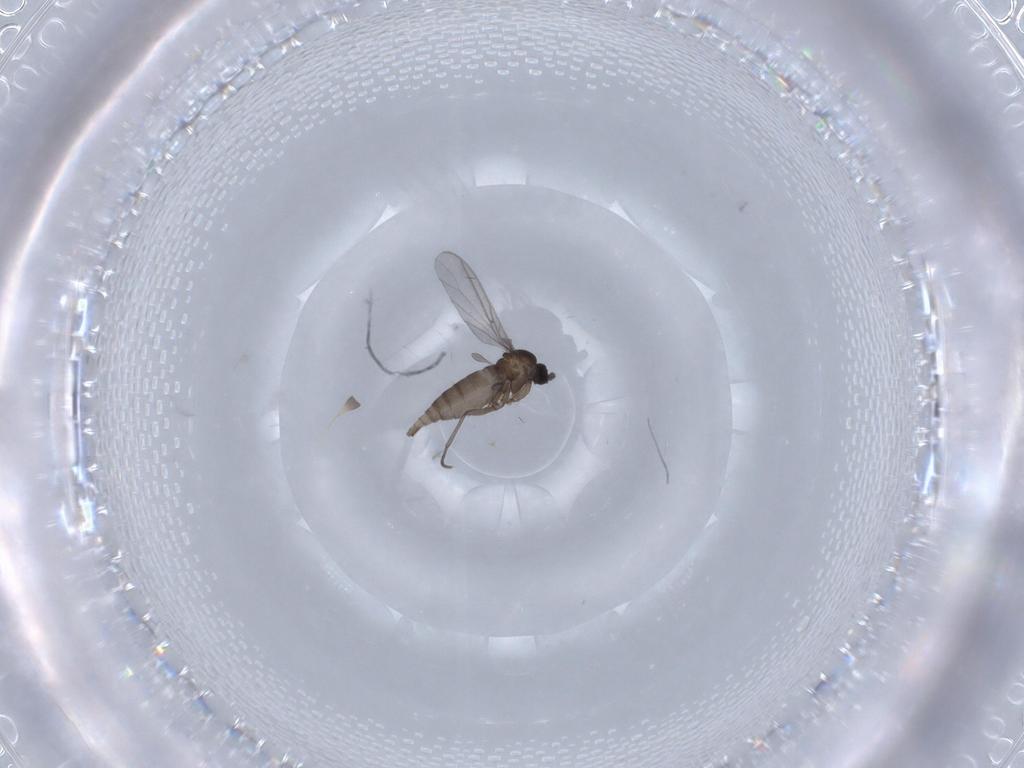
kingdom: Animalia
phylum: Arthropoda
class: Insecta
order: Diptera
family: Sciaridae
